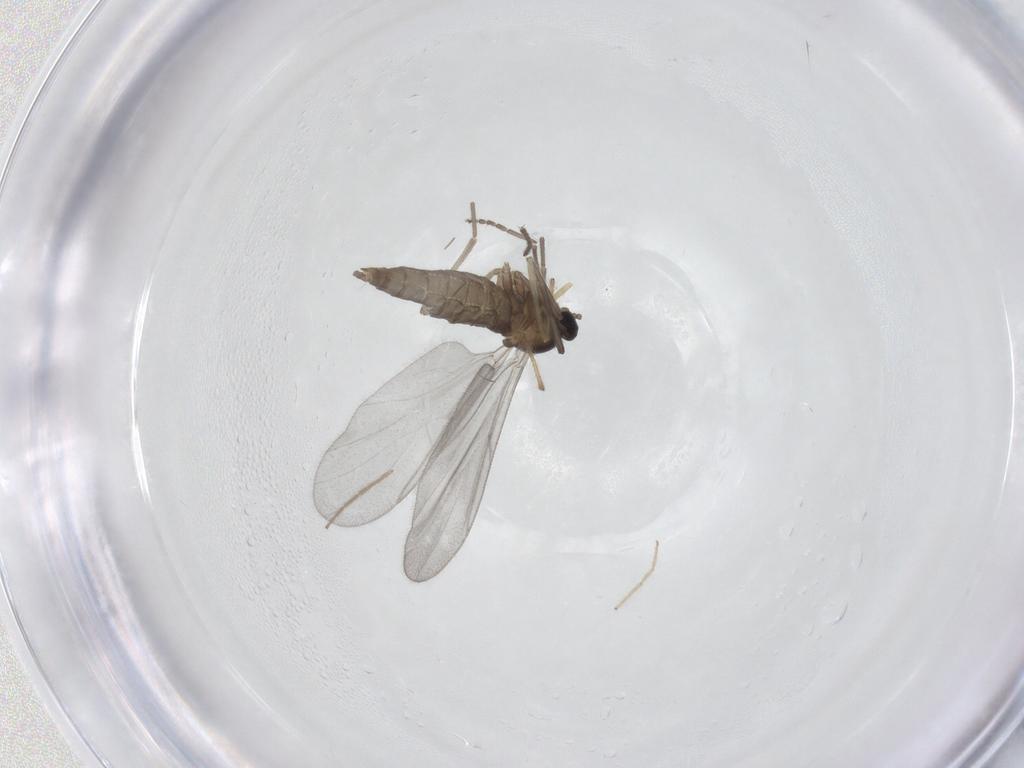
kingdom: Animalia
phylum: Arthropoda
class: Insecta
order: Diptera
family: Cecidomyiidae
